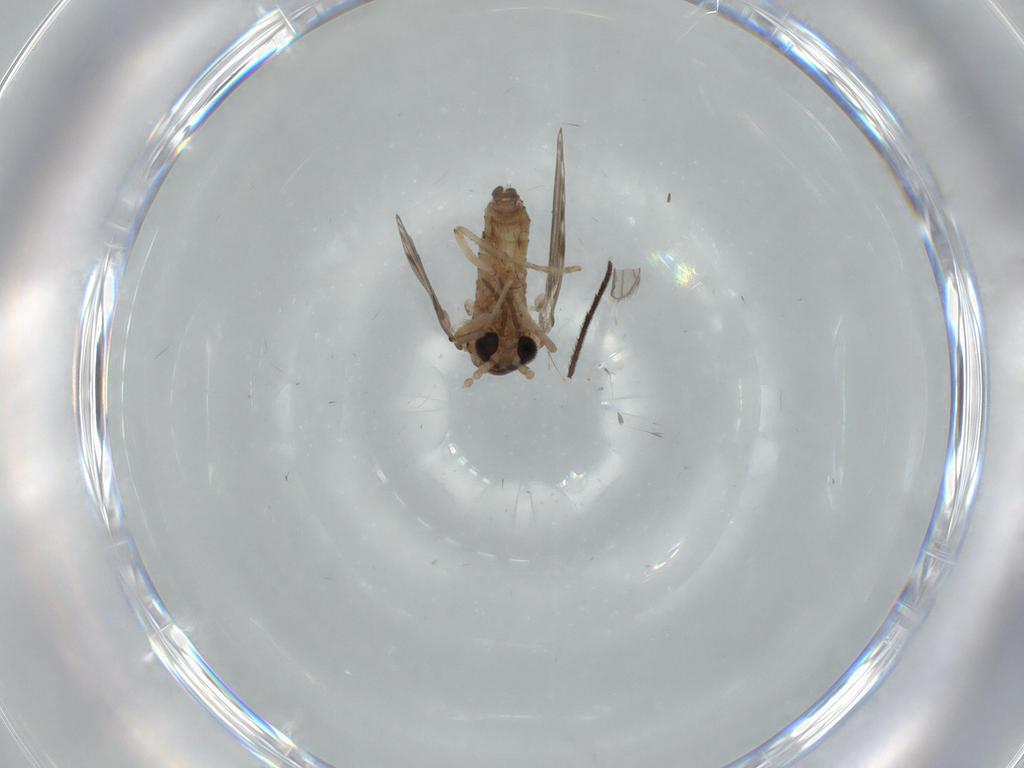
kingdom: Animalia
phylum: Arthropoda
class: Insecta
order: Diptera
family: Psychodidae
